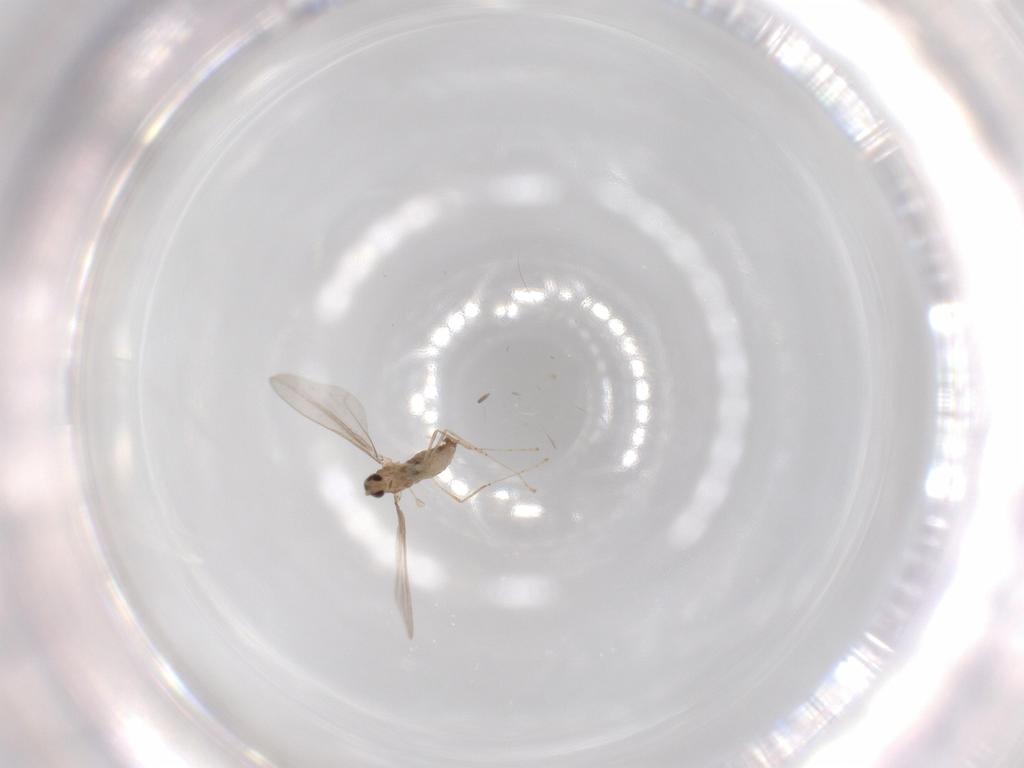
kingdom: Animalia
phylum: Arthropoda
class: Insecta
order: Diptera
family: Cecidomyiidae
